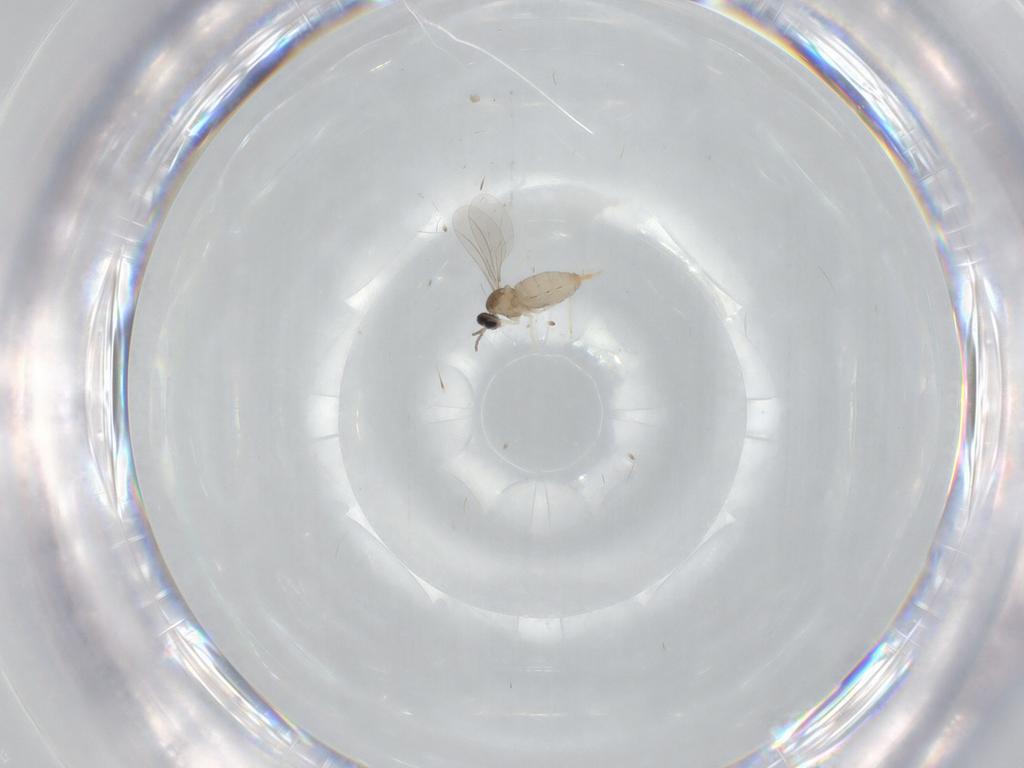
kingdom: Animalia
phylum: Arthropoda
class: Insecta
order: Diptera
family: Cecidomyiidae
